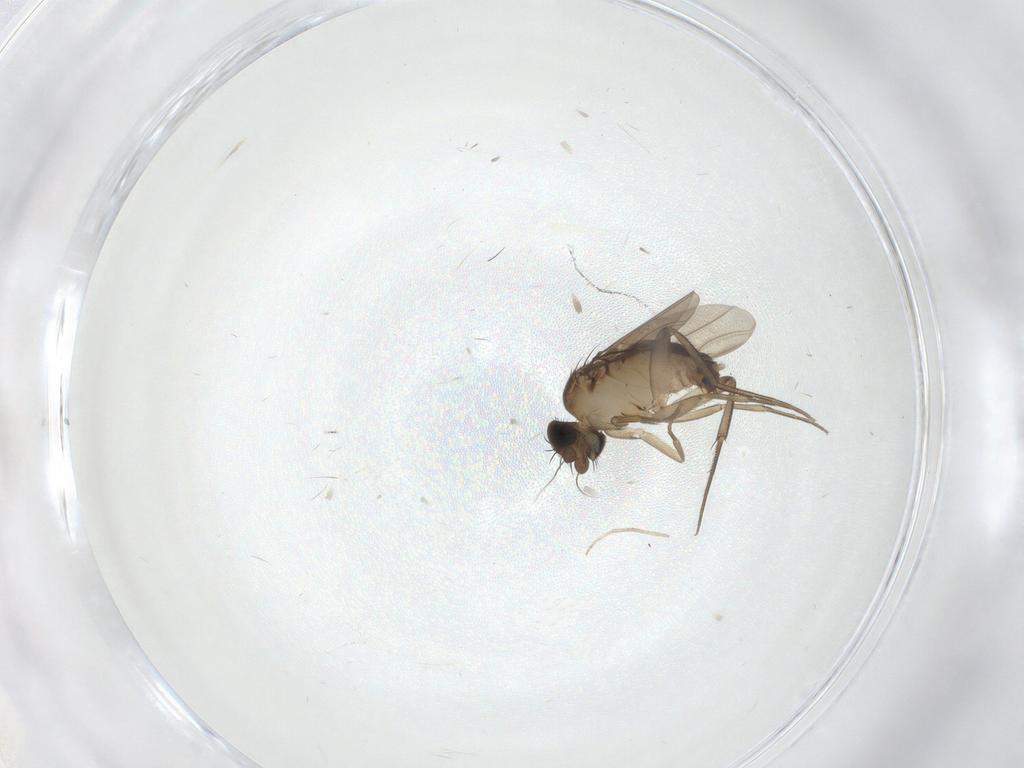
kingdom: Animalia
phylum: Arthropoda
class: Insecta
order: Diptera
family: Phoridae
